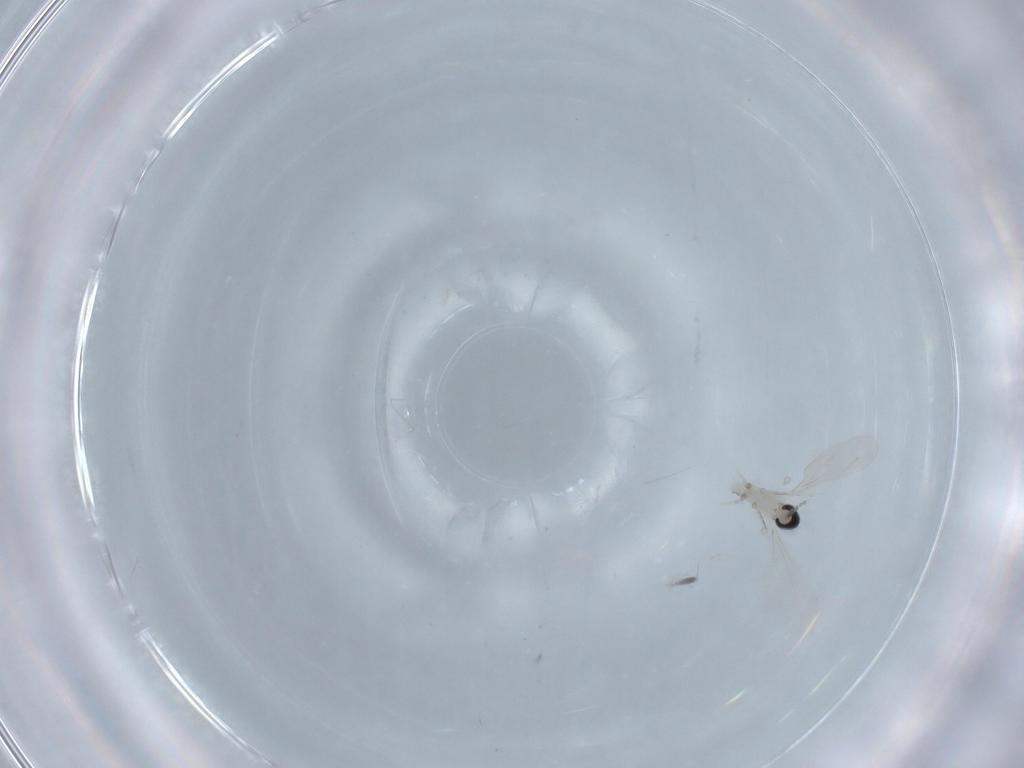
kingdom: Animalia
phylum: Arthropoda
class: Insecta
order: Diptera
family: Cecidomyiidae
